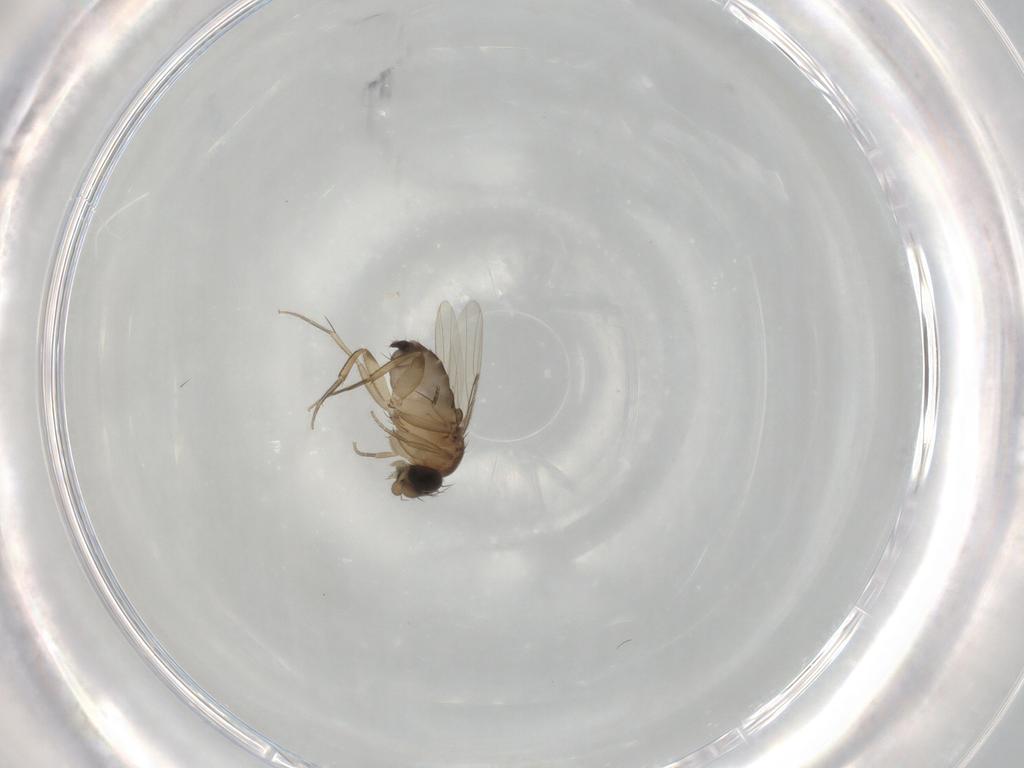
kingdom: Animalia
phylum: Arthropoda
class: Insecta
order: Diptera
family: Phoridae
